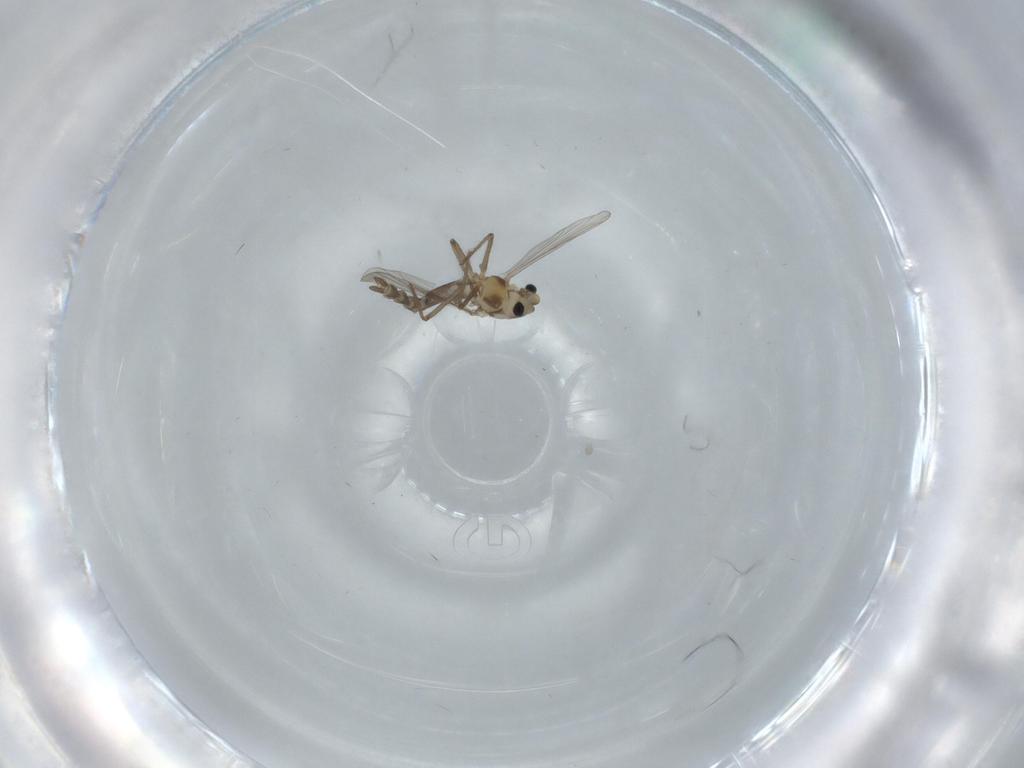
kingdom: Animalia
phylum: Arthropoda
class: Insecta
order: Diptera
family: Chironomidae
